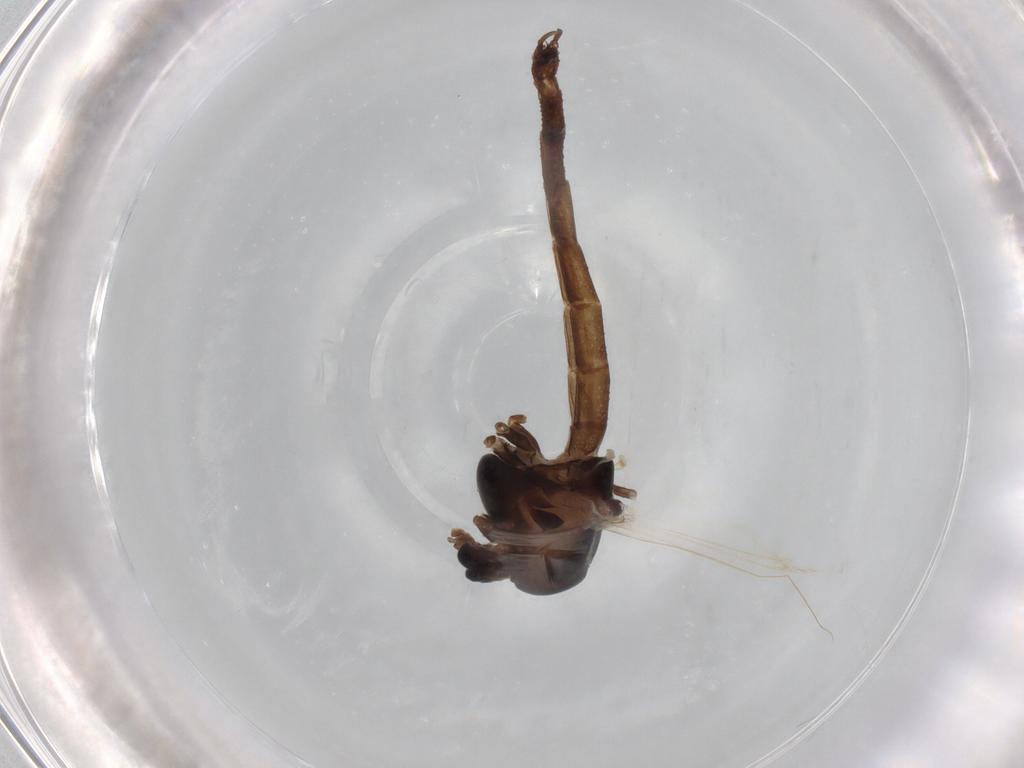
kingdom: Animalia
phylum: Arthropoda
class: Insecta
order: Diptera
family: Chironomidae
